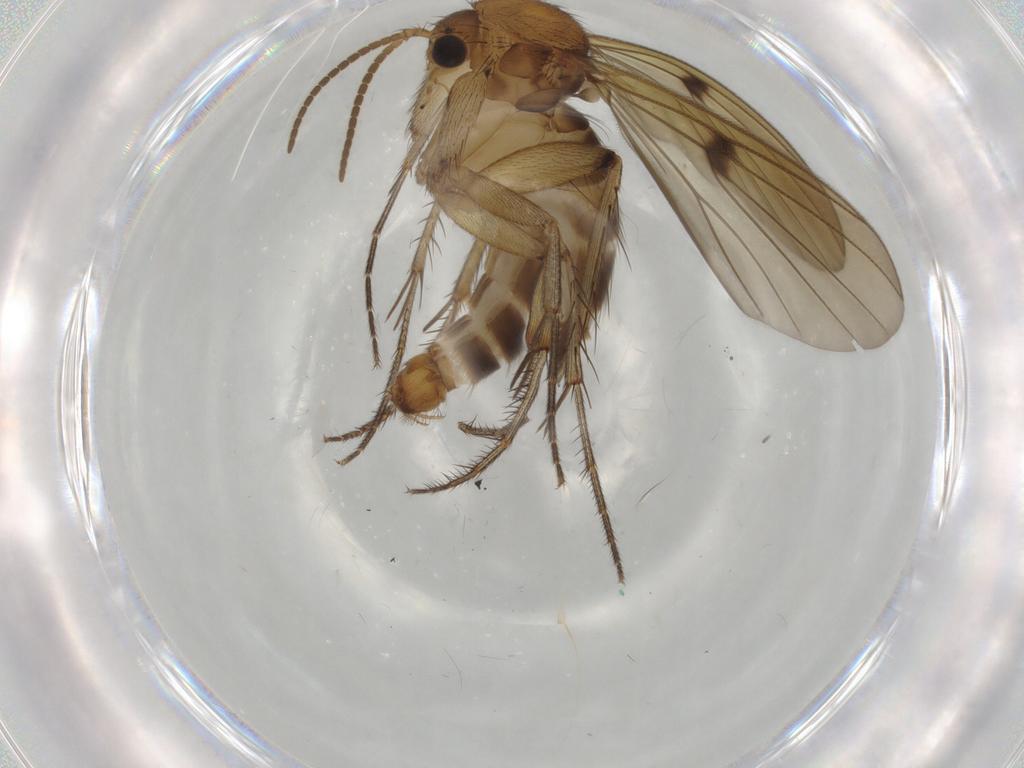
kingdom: Animalia
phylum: Arthropoda
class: Insecta
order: Diptera
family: Mycetophilidae
